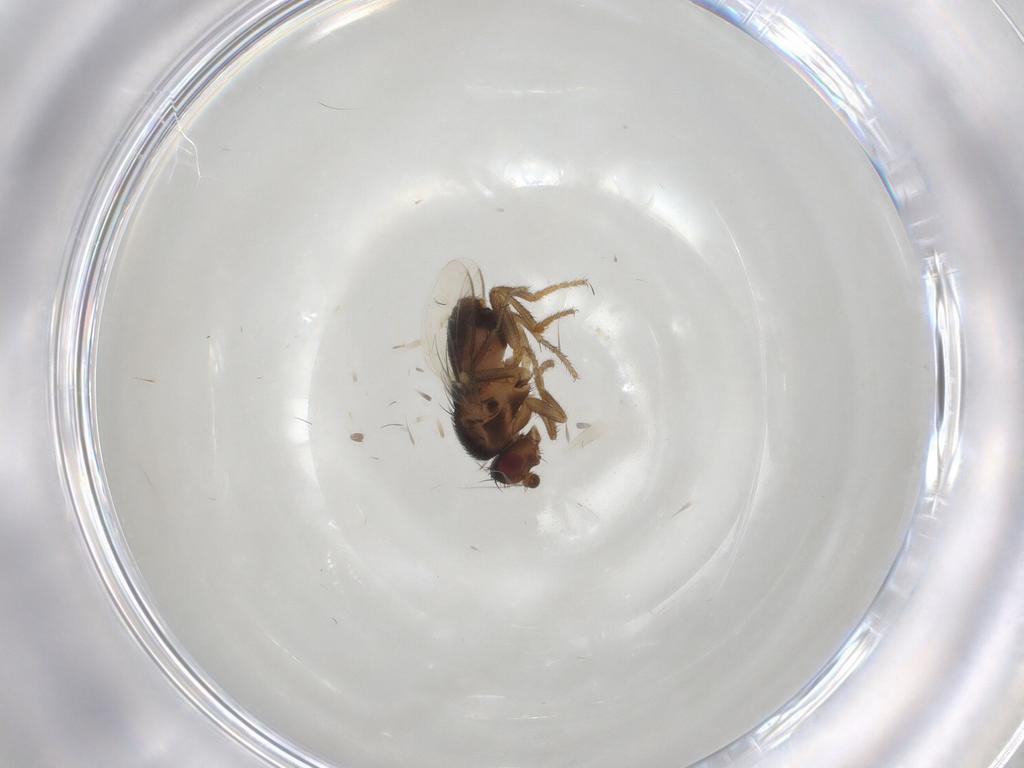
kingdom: Animalia
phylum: Arthropoda
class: Insecta
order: Diptera
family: Sphaeroceridae
